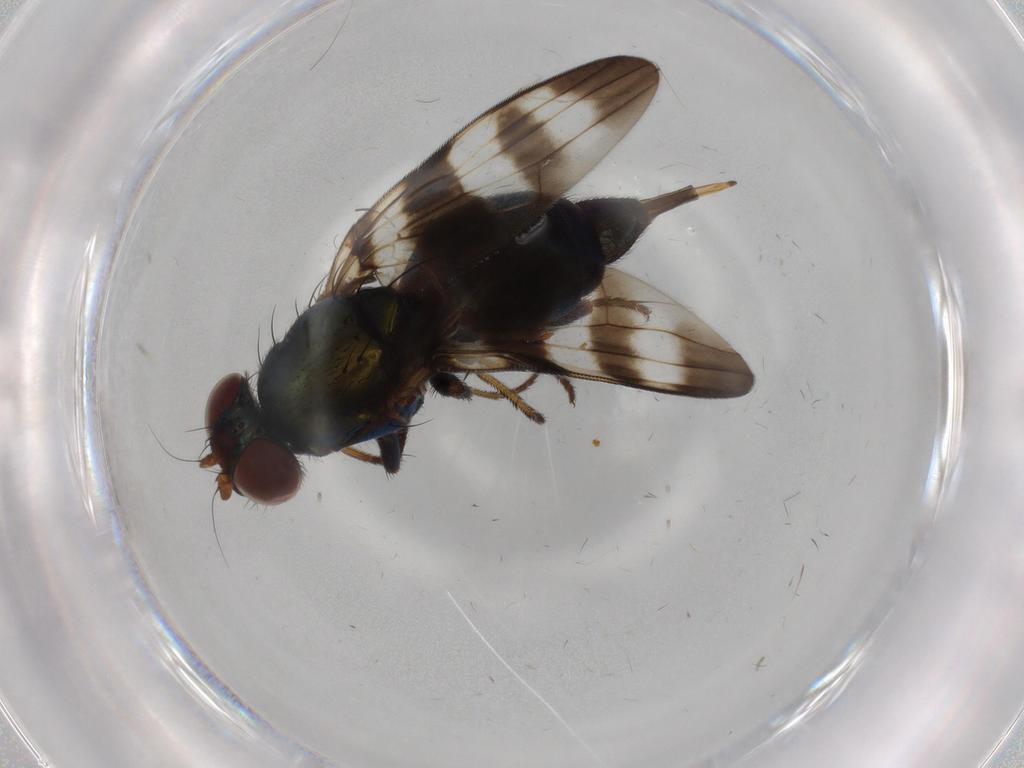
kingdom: Animalia
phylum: Arthropoda
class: Insecta
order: Diptera
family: Ulidiidae
